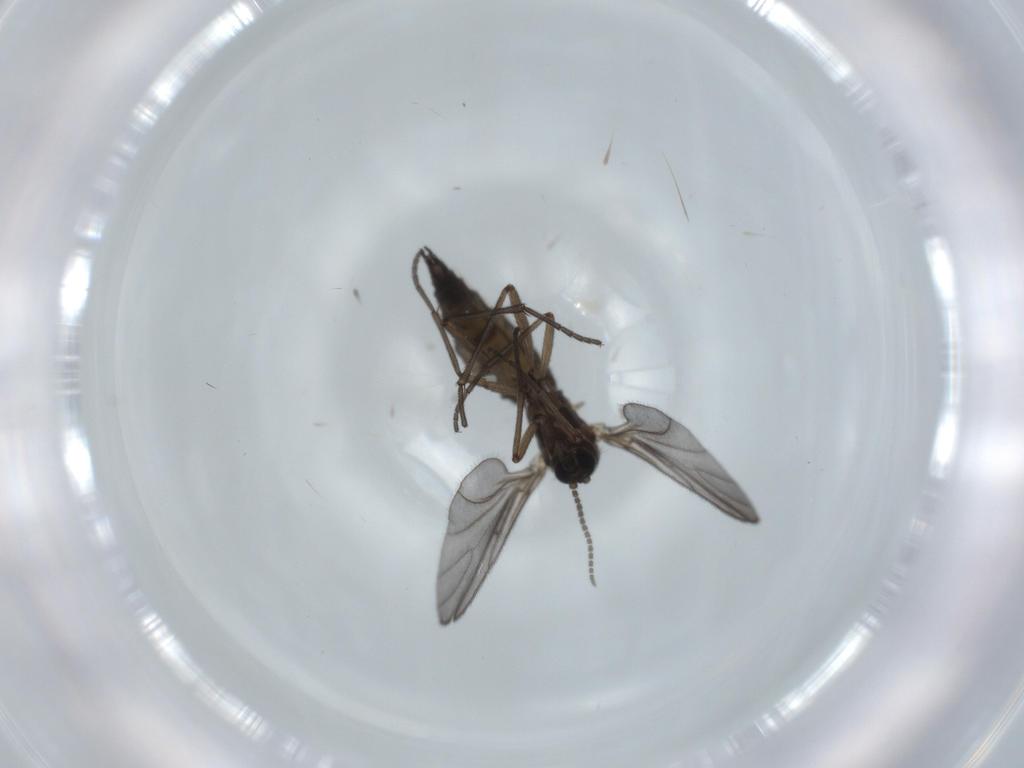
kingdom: Animalia
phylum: Arthropoda
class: Insecta
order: Diptera
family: Sciaridae
